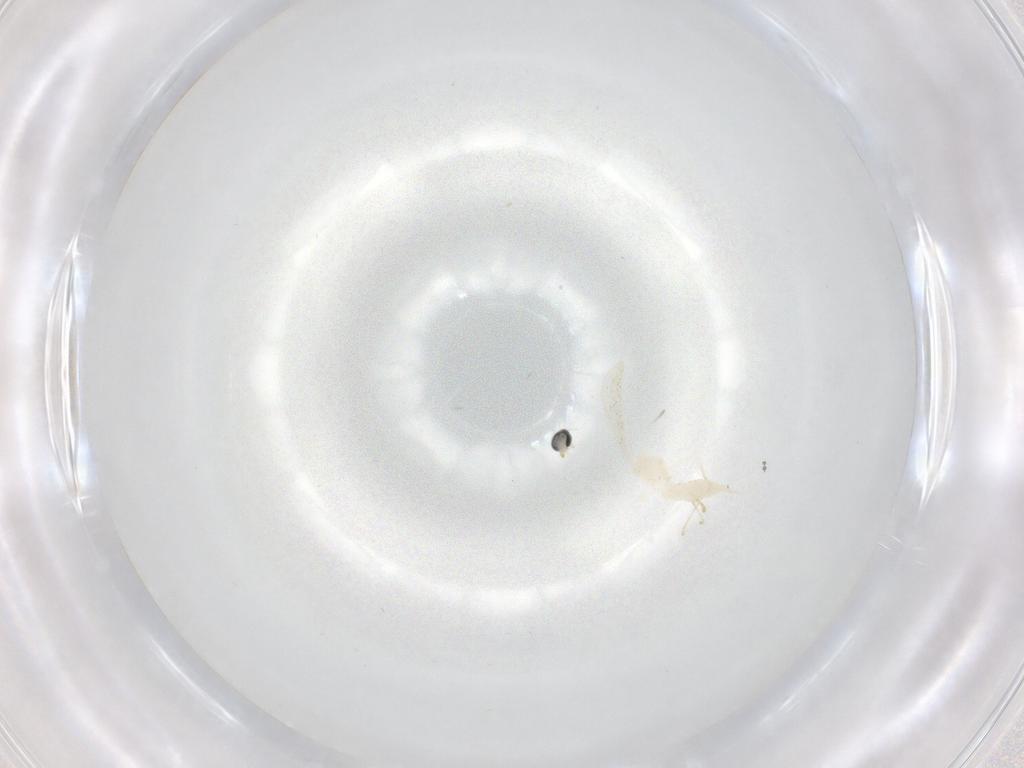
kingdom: Animalia
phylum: Arthropoda
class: Insecta
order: Diptera
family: Cecidomyiidae
